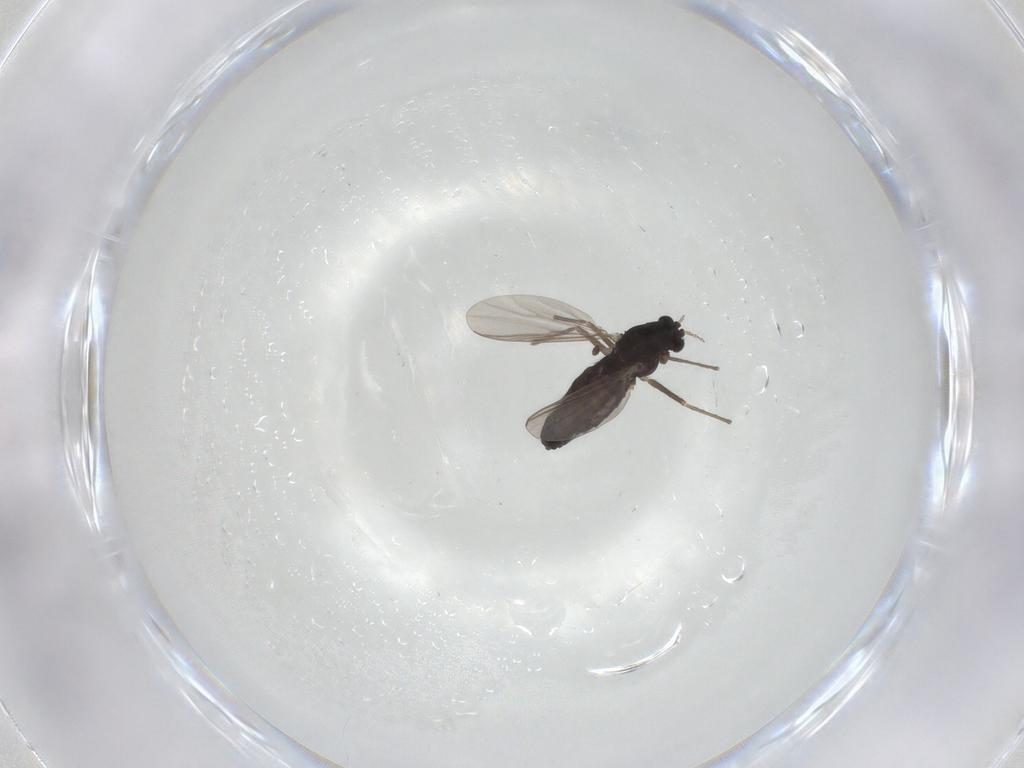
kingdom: Animalia
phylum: Arthropoda
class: Insecta
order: Diptera
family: Chironomidae
